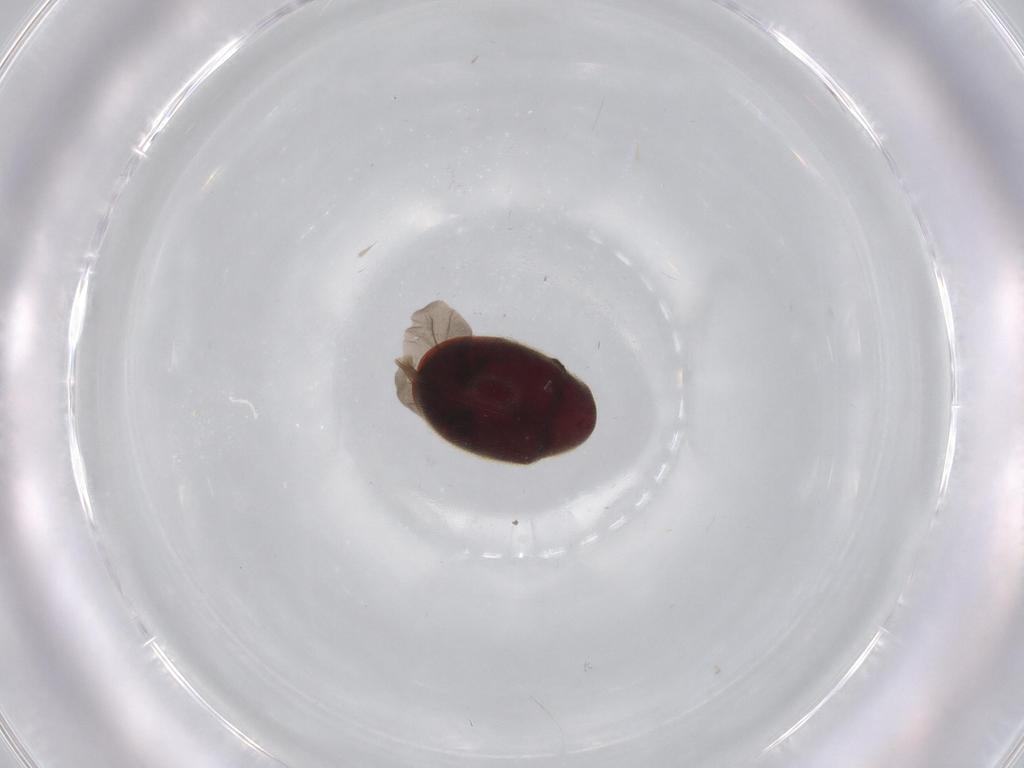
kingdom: Animalia
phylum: Arthropoda
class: Insecta
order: Coleoptera
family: Ptinidae
